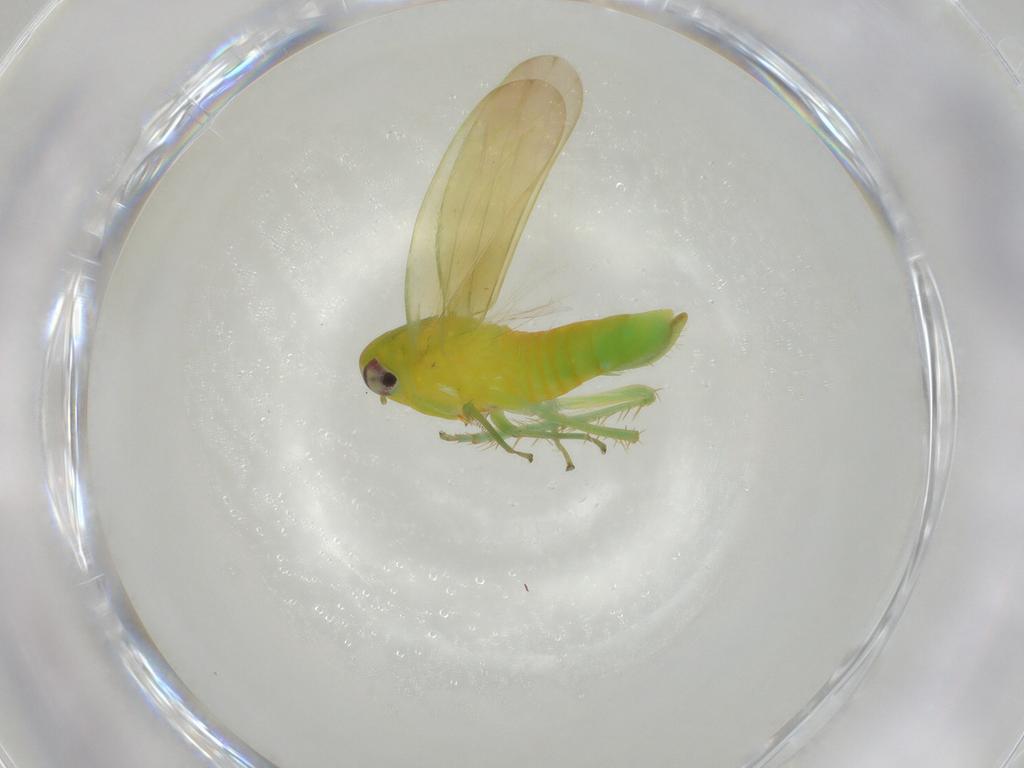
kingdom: Animalia
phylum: Arthropoda
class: Insecta
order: Hemiptera
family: Cicadellidae
